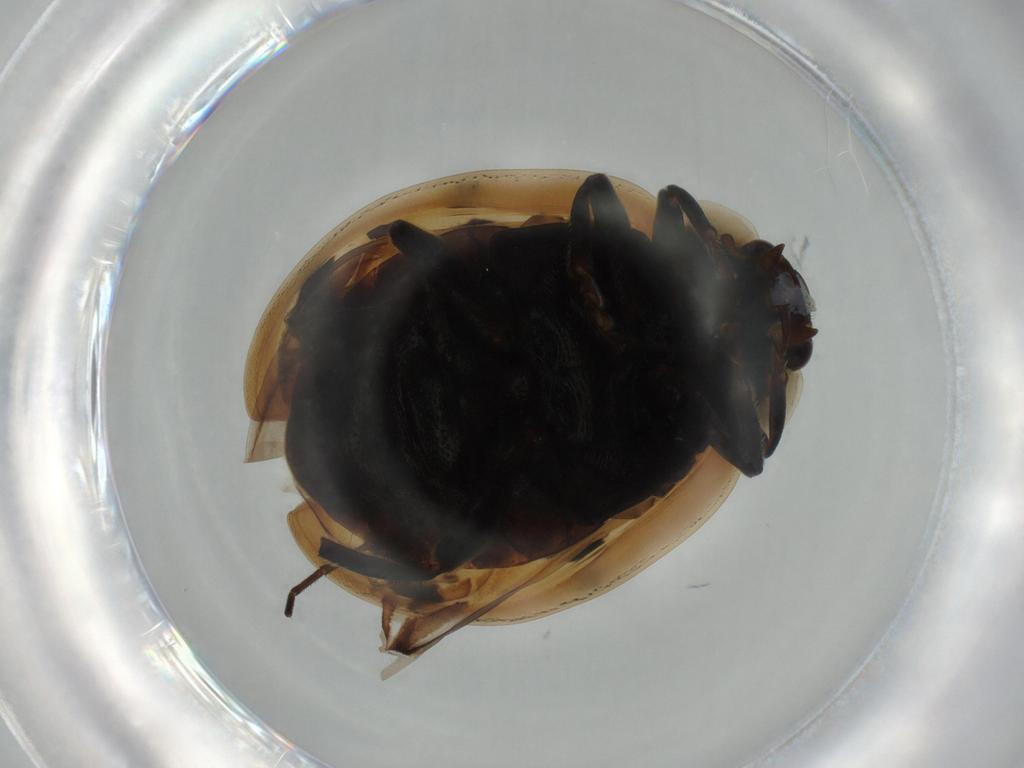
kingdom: Animalia
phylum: Arthropoda
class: Insecta
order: Coleoptera
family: Coccinellidae
